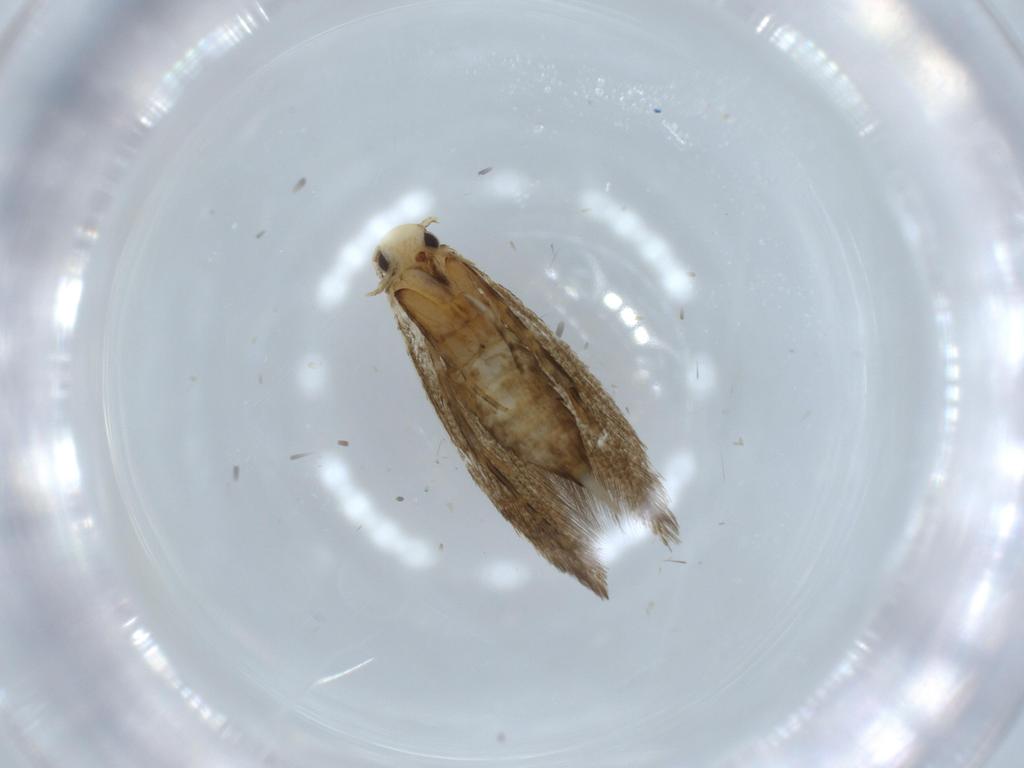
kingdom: Animalia
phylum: Arthropoda
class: Insecta
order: Lepidoptera
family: Tineidae
